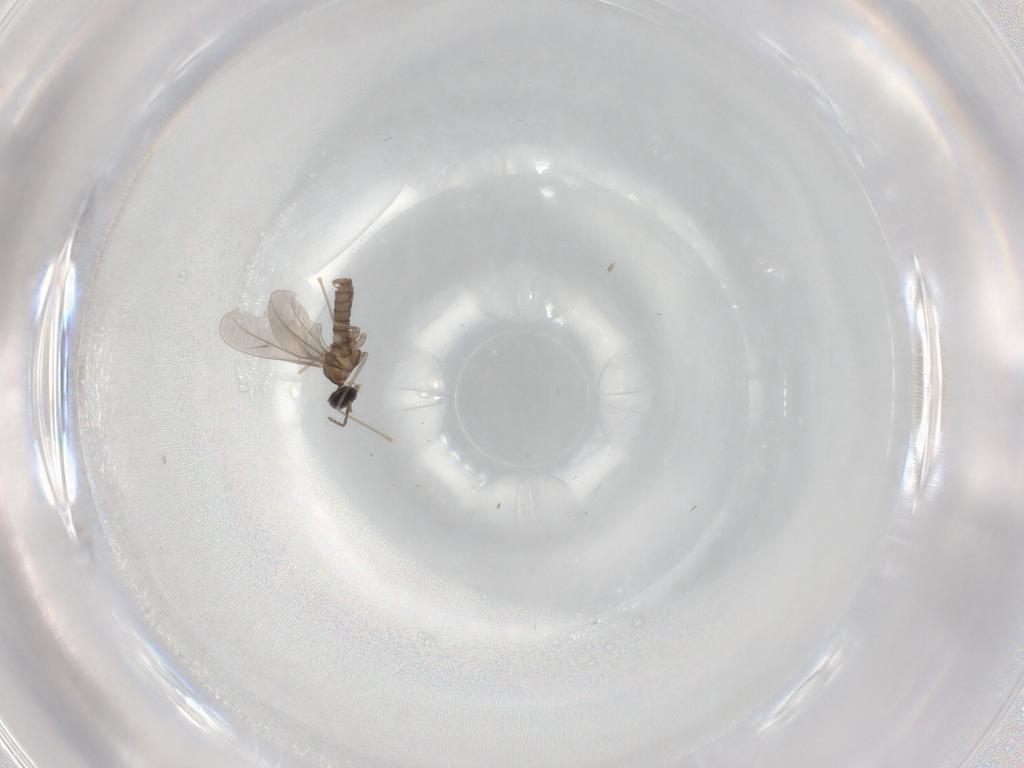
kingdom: Animalia
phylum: Arthropoda
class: Insecta
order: Diptera
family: Cecidomyiidae
